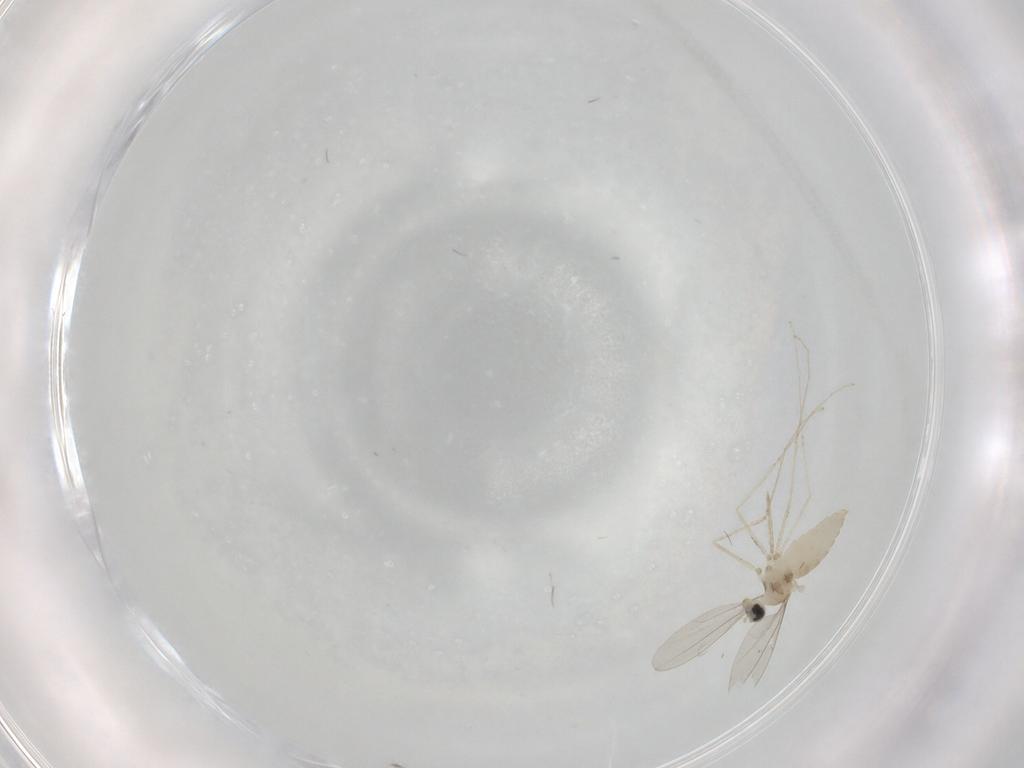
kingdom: Animalia
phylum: Arthropoda
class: Insecta
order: Diptera
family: Cecidomyiidae
